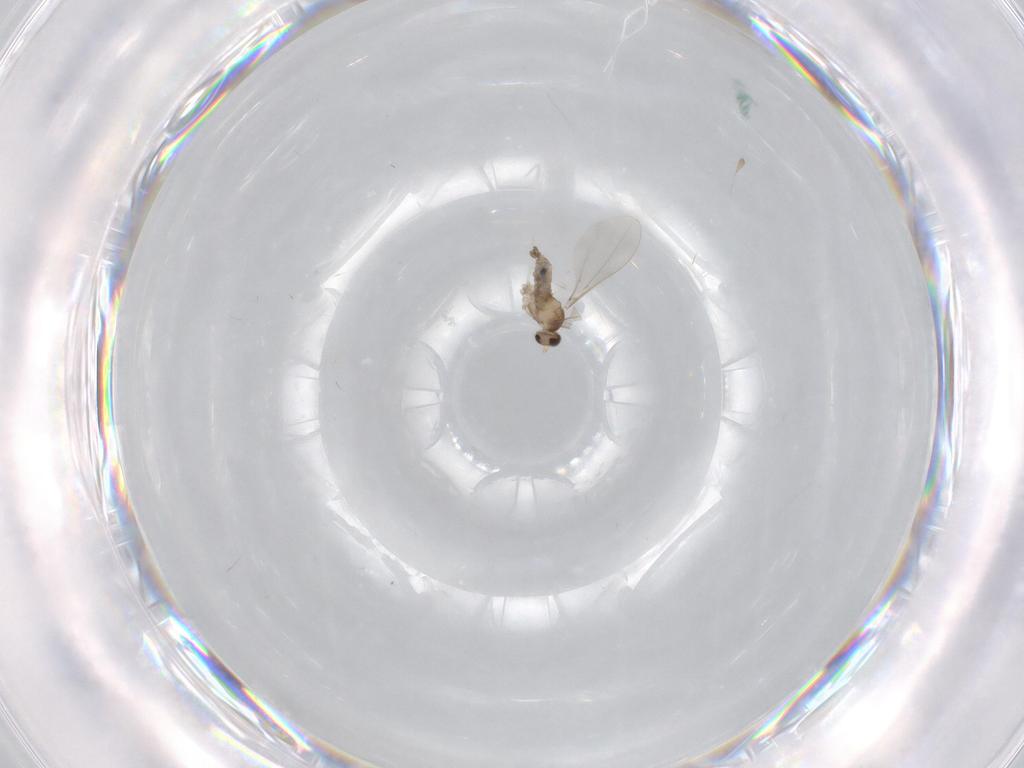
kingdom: Animalia
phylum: Arthropoda
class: Insecta
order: Diptera
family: Cecidomyiidae
